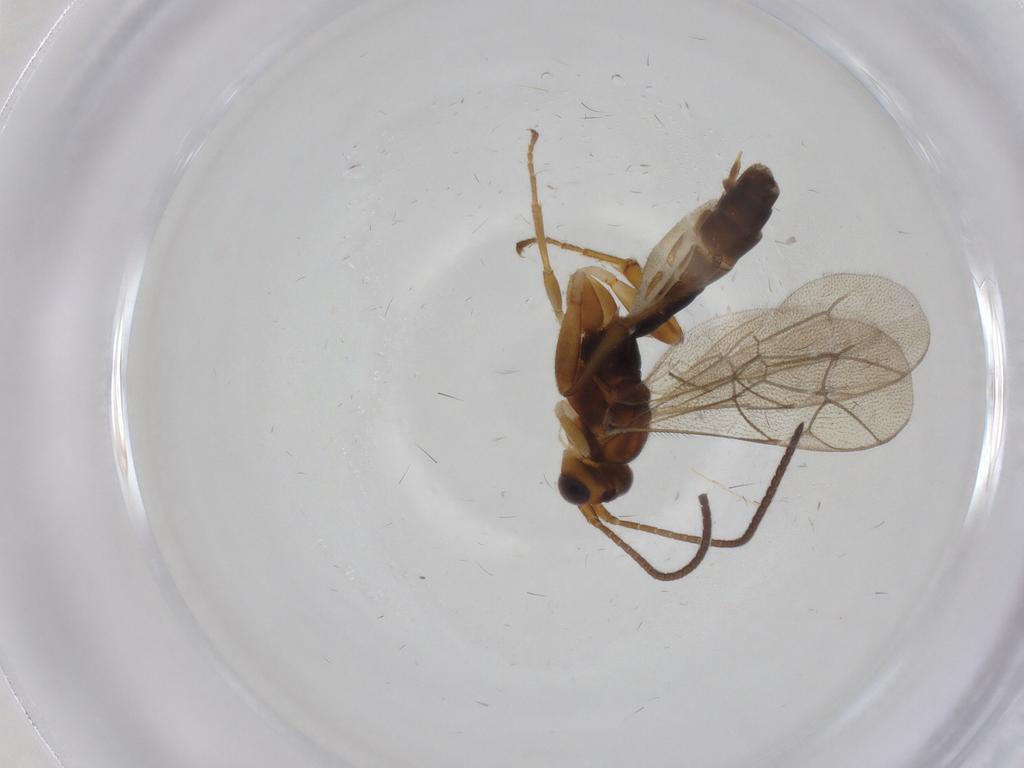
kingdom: Animalia
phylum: Arthropoda
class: Insecta
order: Hymenoptera
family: Ichneumonidae
